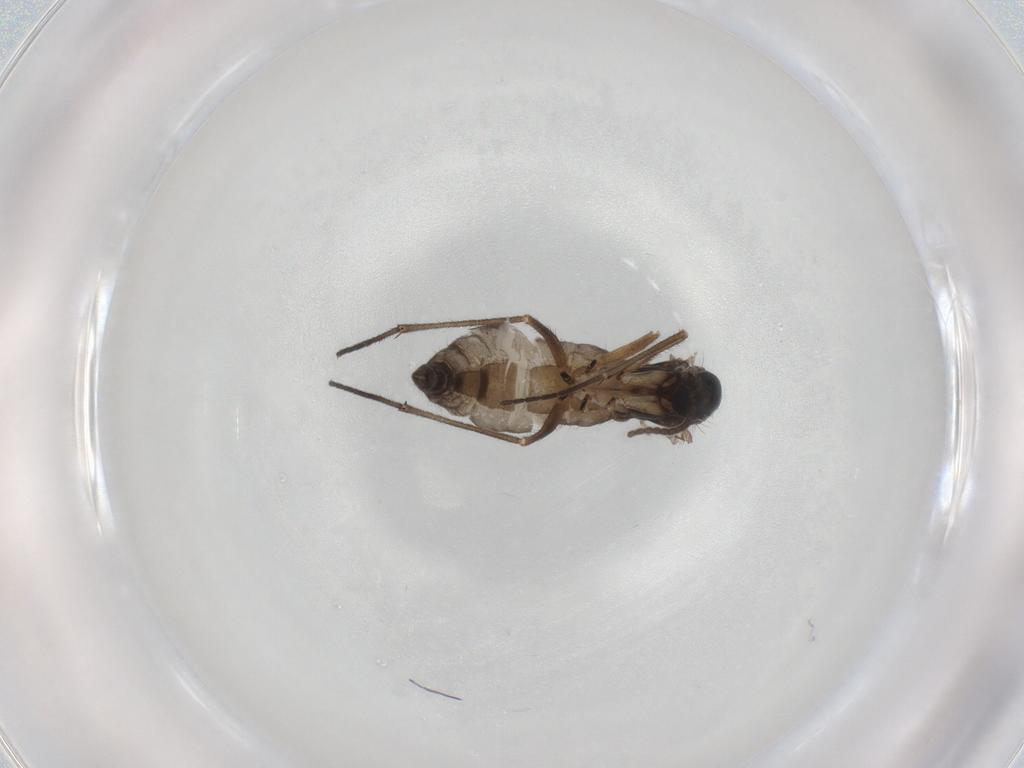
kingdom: Animalia
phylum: Arthropoda
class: Insecta
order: Diptera
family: Sciaridae
